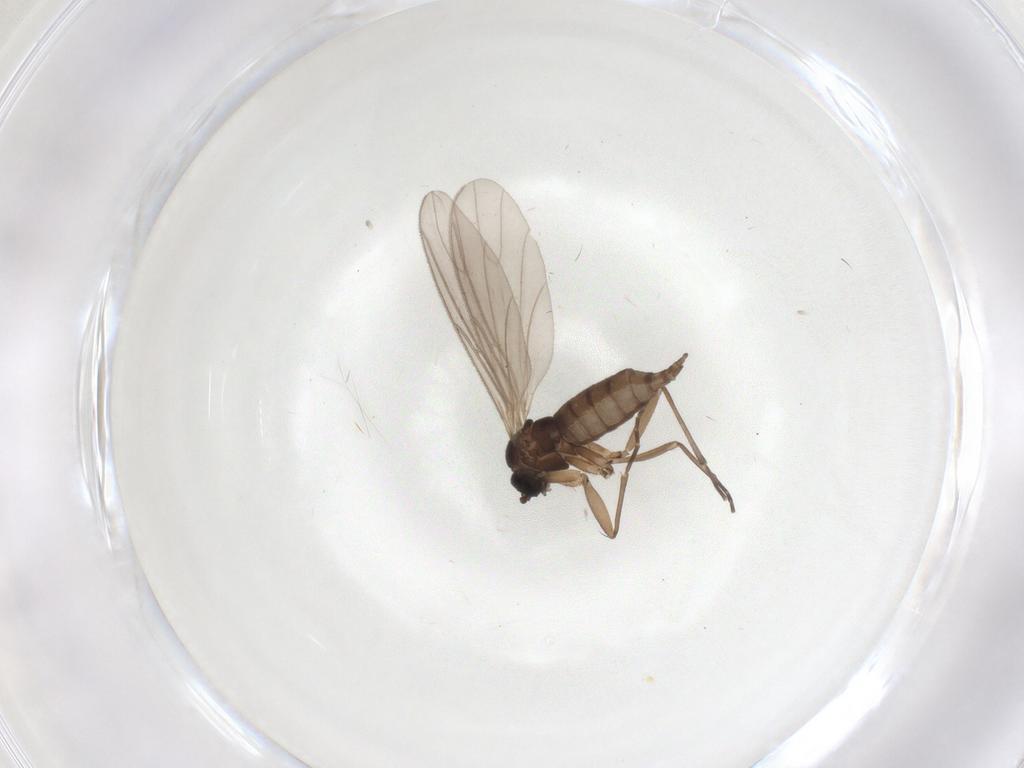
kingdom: Animalia
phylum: Arthropoda
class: Insecta
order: Diptera
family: Sciaridae
